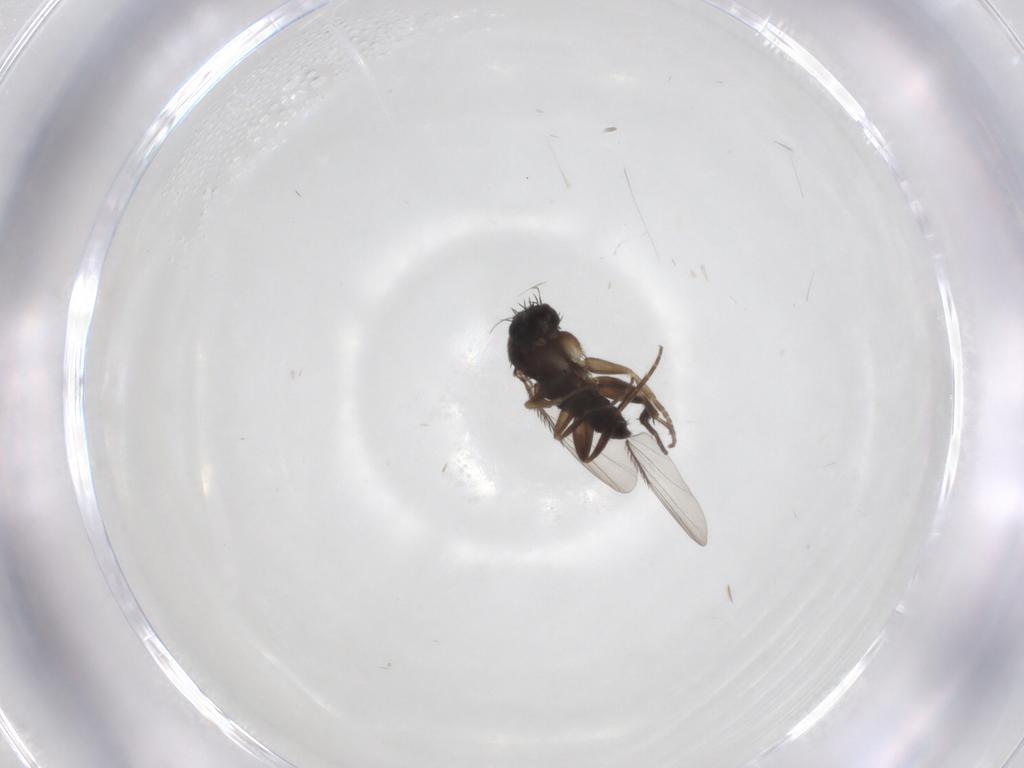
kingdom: Animalia
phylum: Arthropoda
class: Insecta
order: Diptera
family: Phoridae
